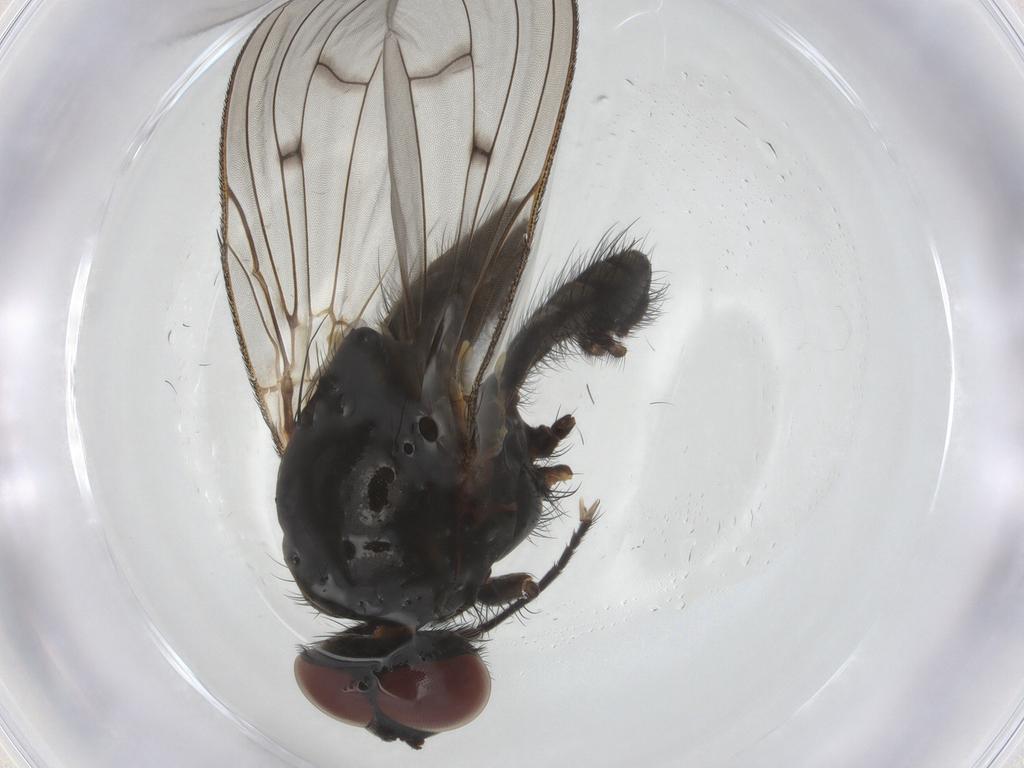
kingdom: Animalia
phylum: Arthropoda
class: Insecta
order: Diptera
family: Anthomyiidae
